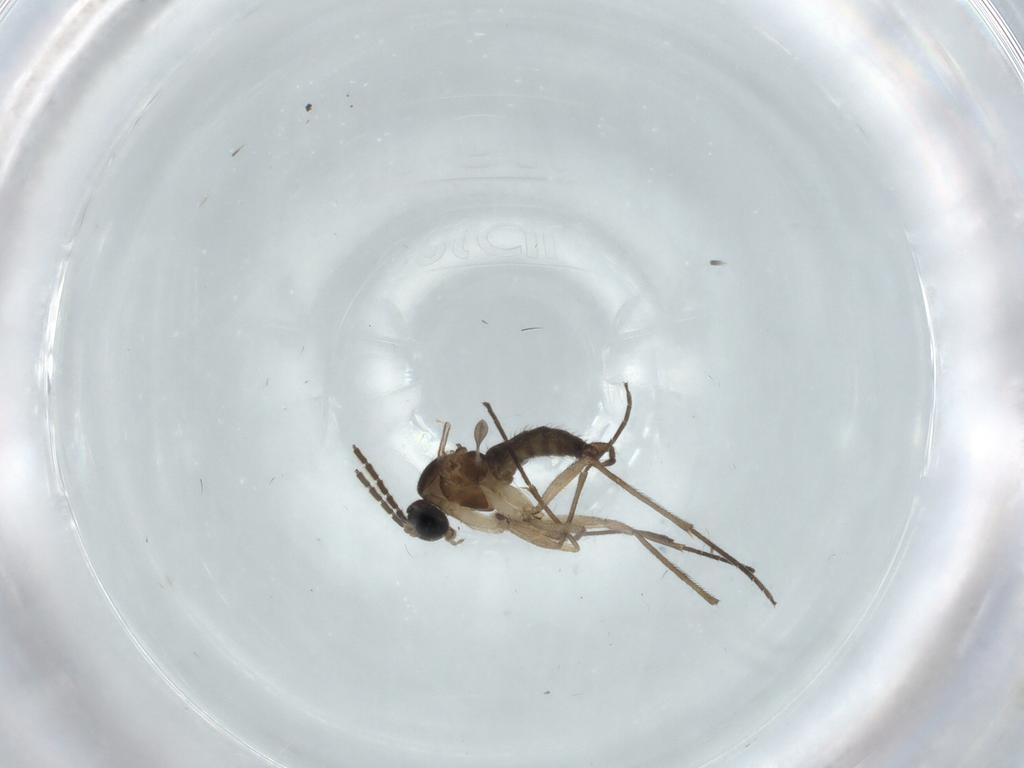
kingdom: Animalia
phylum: Arthropoda
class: Insecta
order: Diptera
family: Sciaridae
